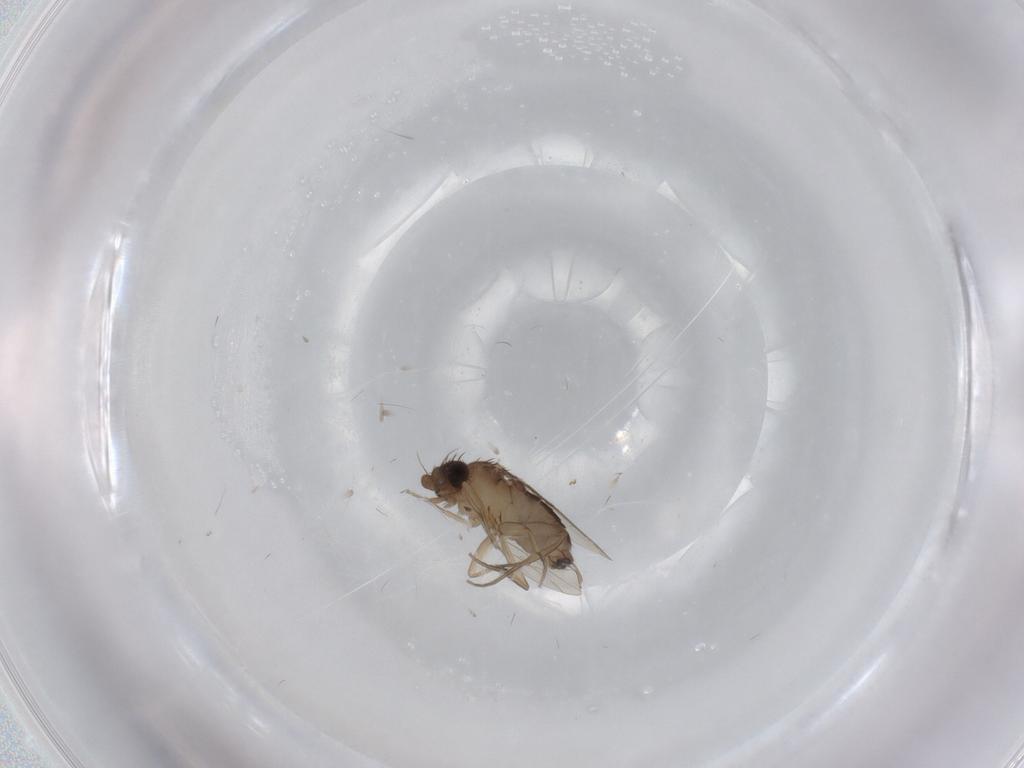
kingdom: Animalia
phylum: Arthropoda
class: Insecta
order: Diptera
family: Phoridae
